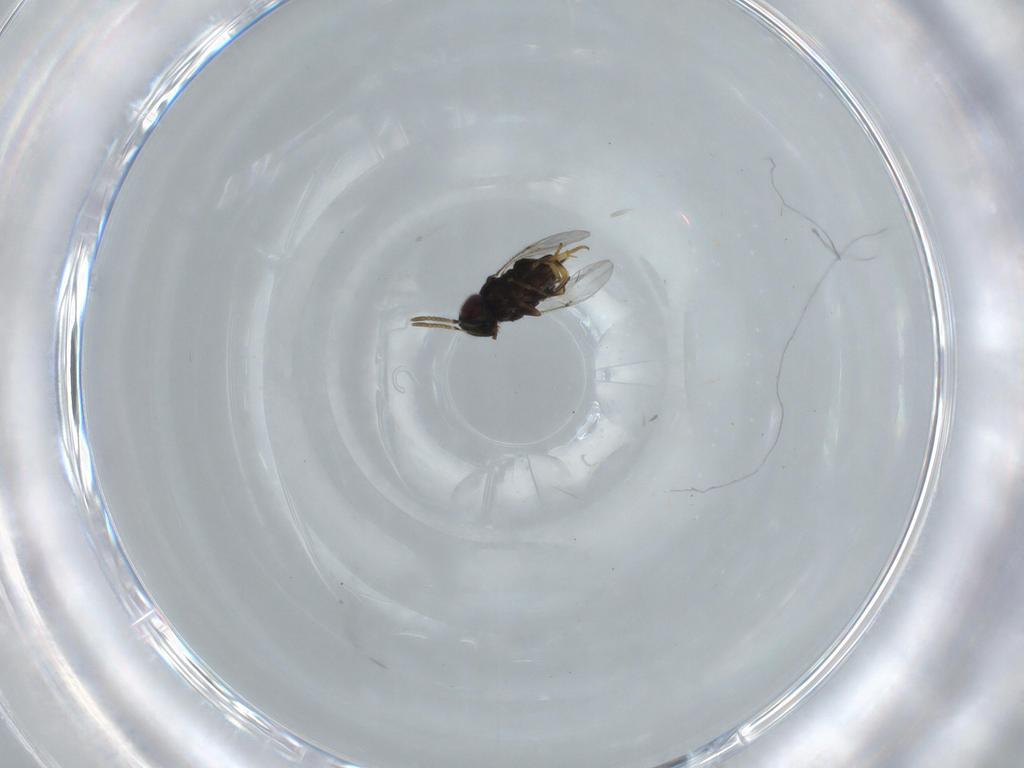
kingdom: Animalia
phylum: Arthropoda
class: Insecta
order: Hymenoptera
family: Encyrtidae
